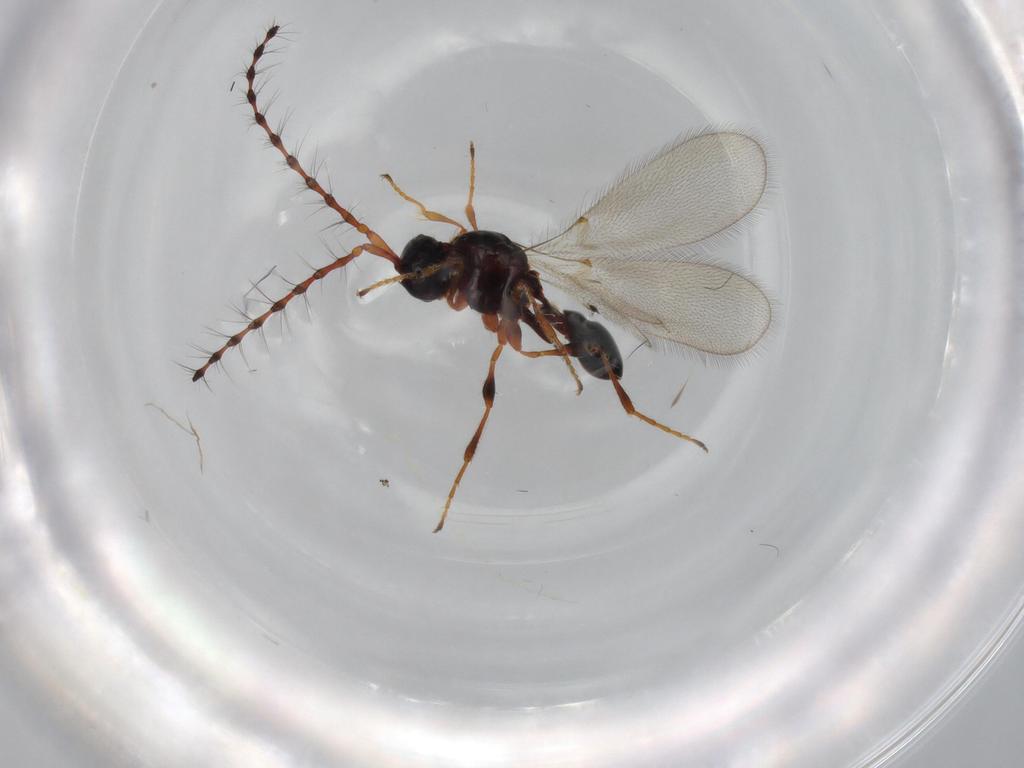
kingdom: Animalia
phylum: Arthropoda
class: Insecta
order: Hymenoptera
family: Diapriidae
